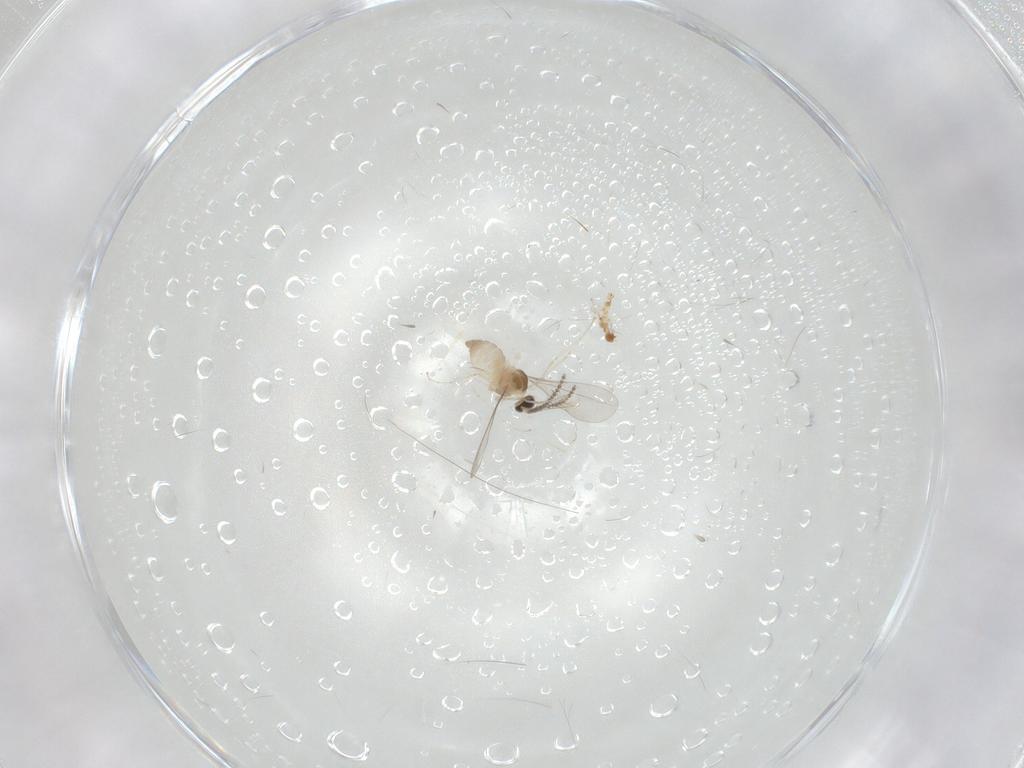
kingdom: Animalia
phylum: Arthropoda
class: Insecta
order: Diptera
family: Cecidomyiidae
